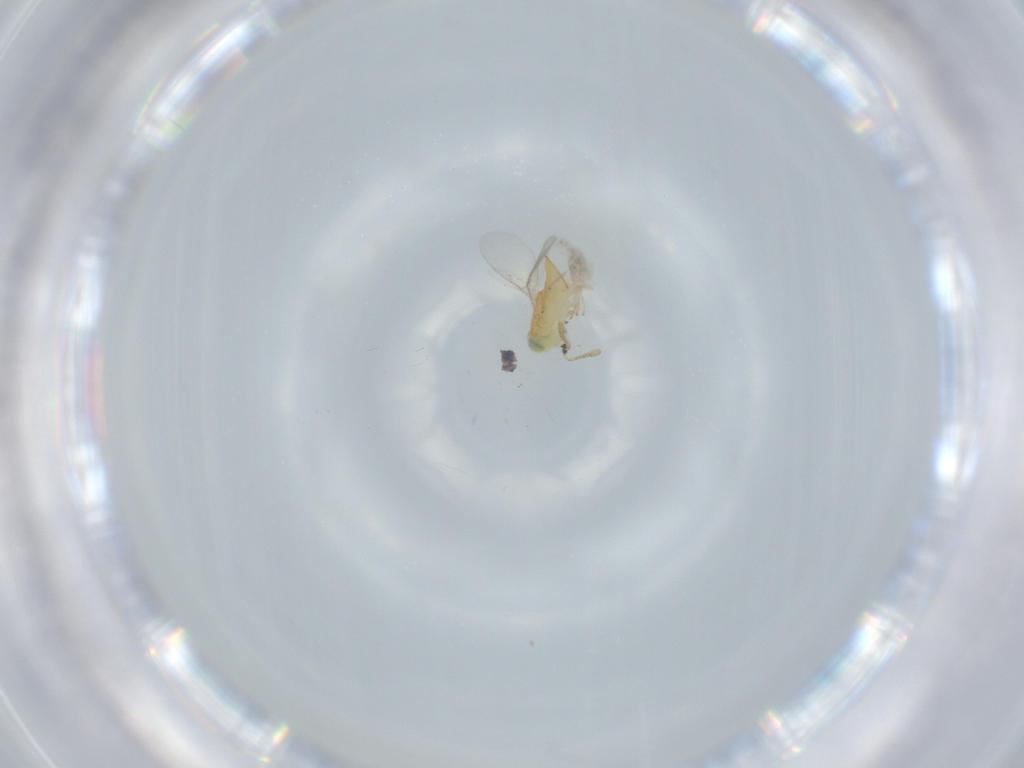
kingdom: Animalia
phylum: Arthropoda
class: Insecta
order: Hymenoptera
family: Encyrtidae
